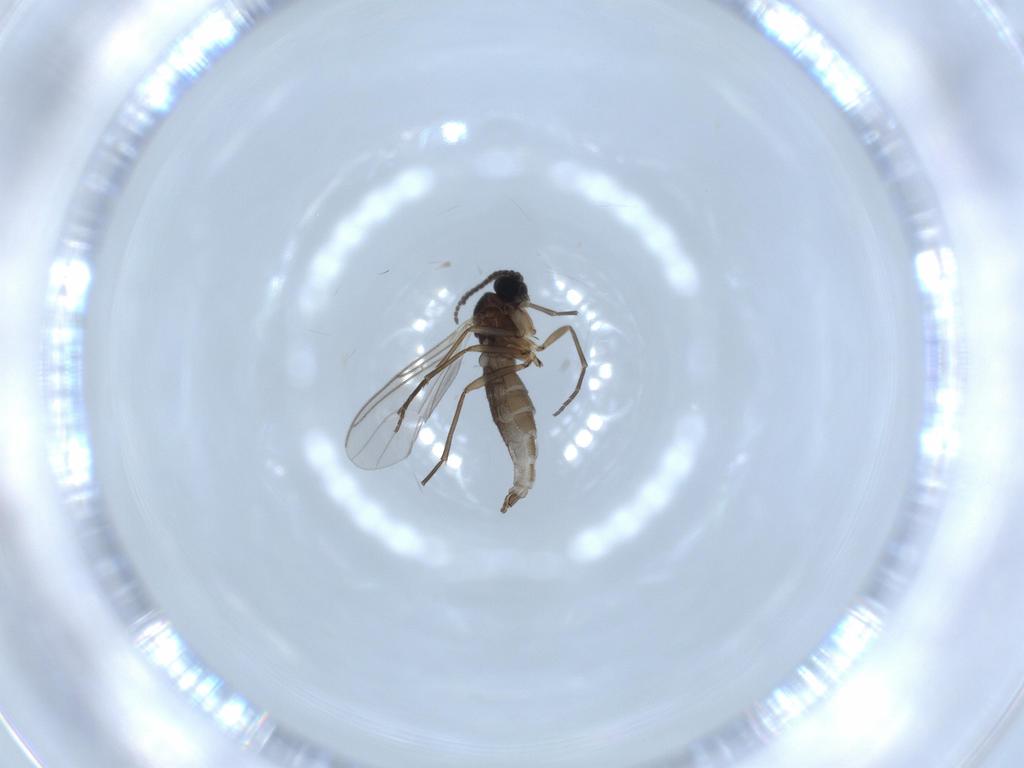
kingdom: Animalia
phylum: Arthropoda
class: Insecta
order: Diptera
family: Sciaridae
